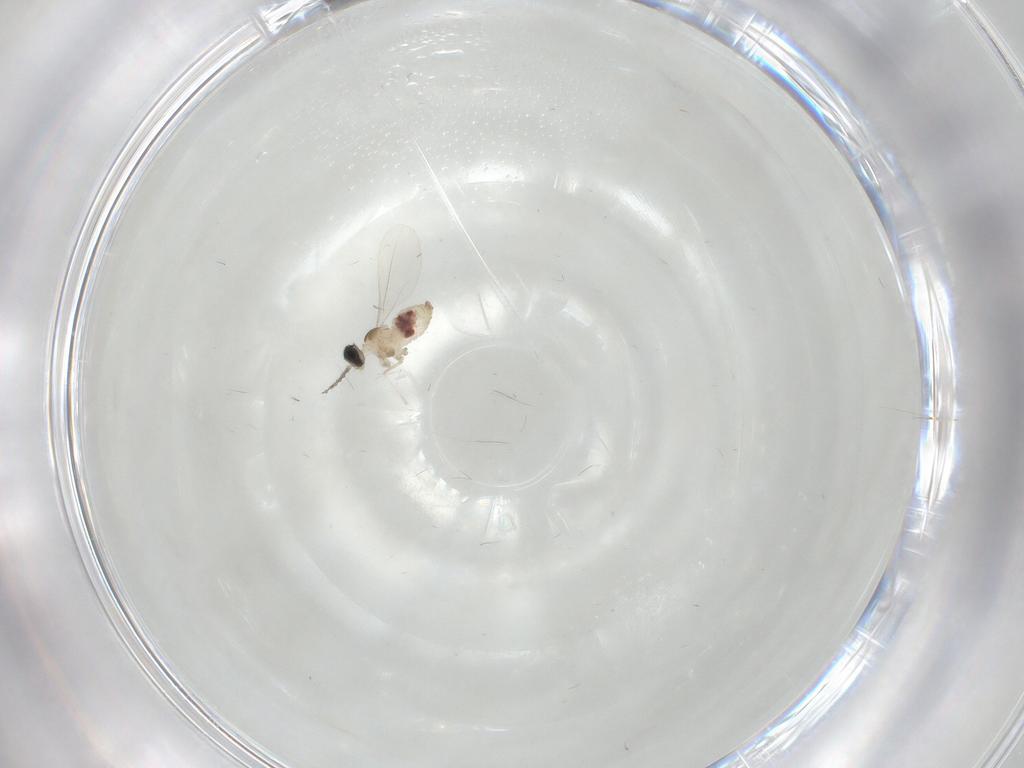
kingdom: Animalia
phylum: Arthropoda
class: Insecta
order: Diptera
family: Cecidomyiidae
